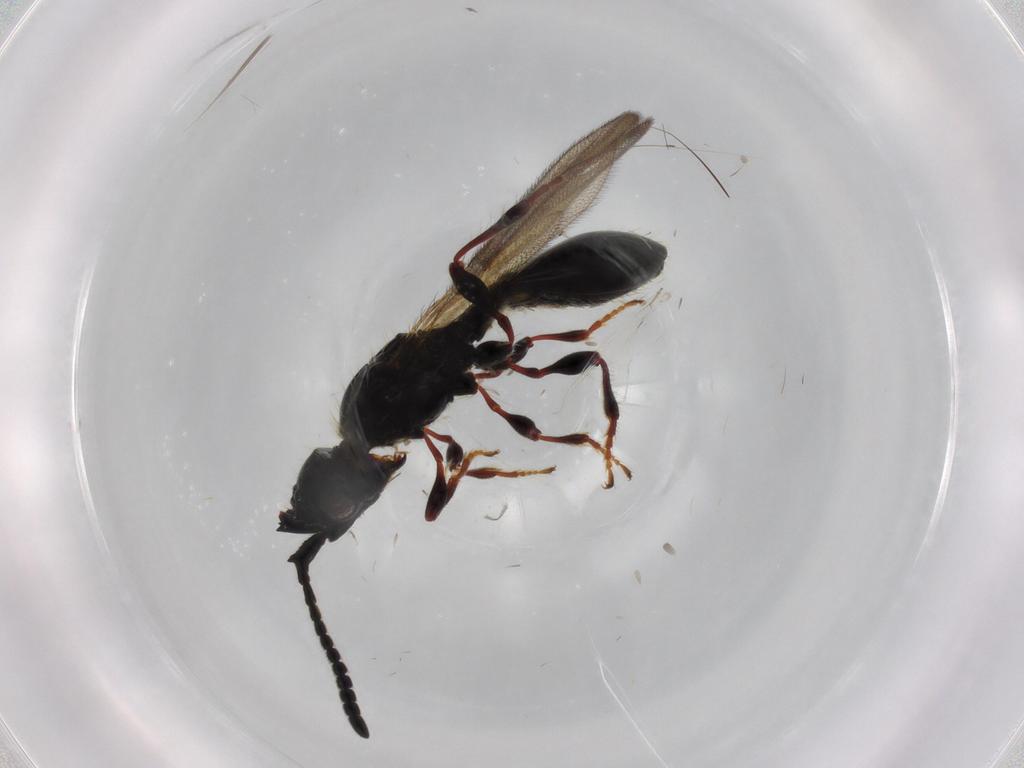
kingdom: Animalia
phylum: Arthropoda
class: Insecta
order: Hymenoptera
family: Diapriidae
